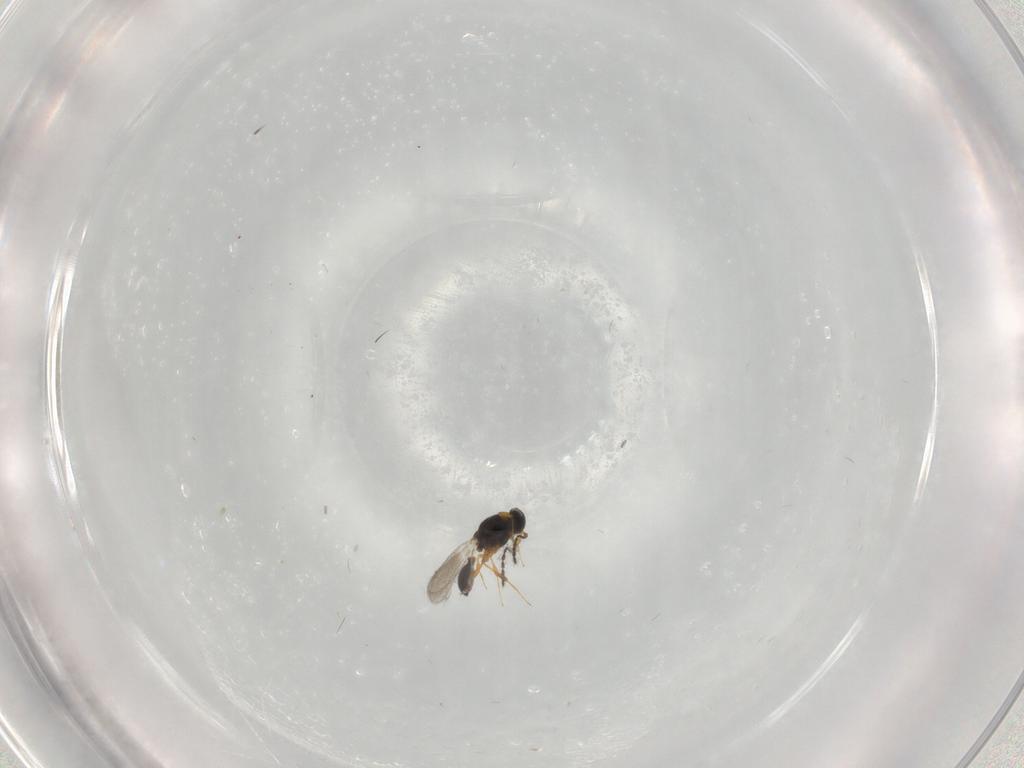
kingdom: Animalia
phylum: Arthropoda
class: Insecta
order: Hymenoptera
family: Platygastridae
